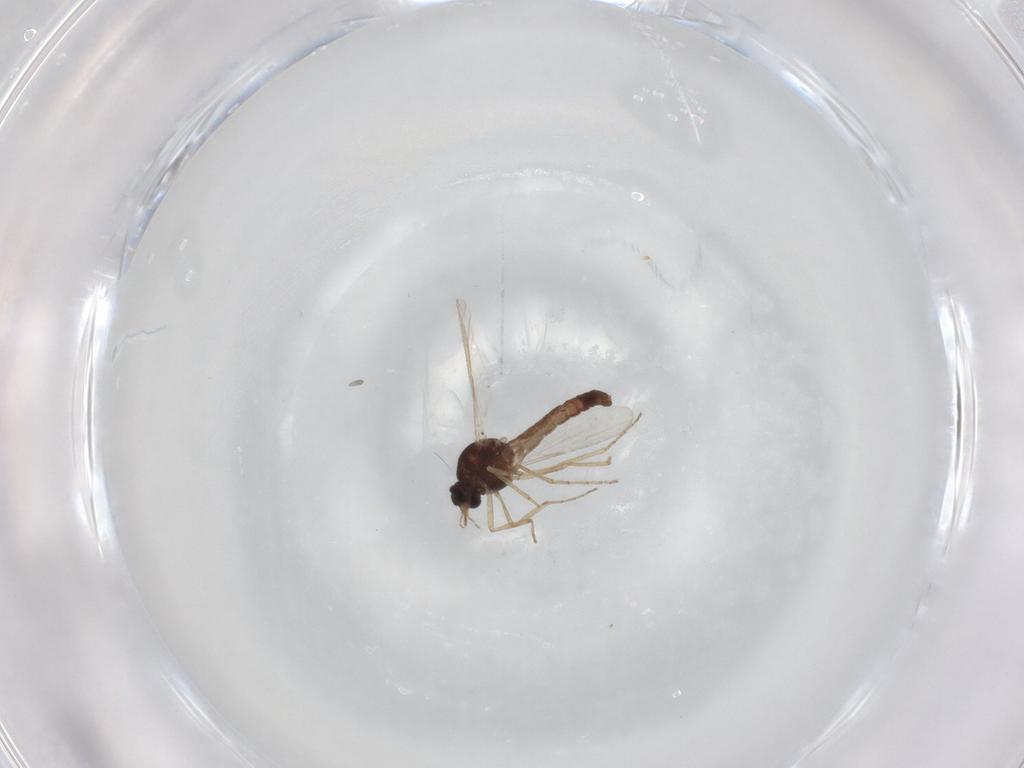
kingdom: Animalia
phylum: Arthropoda
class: Insecta
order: Diptera
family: Ceratopogonidae
